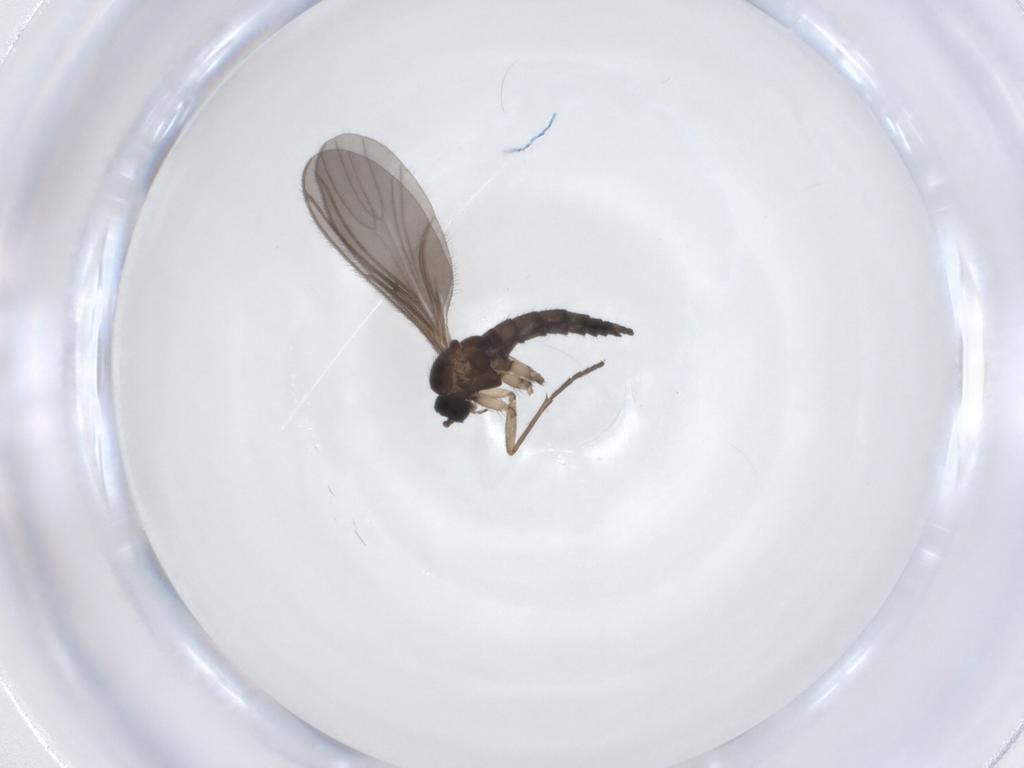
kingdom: Animalia
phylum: Arthropoda
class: Insecta
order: Diptera
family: Sciaridae
